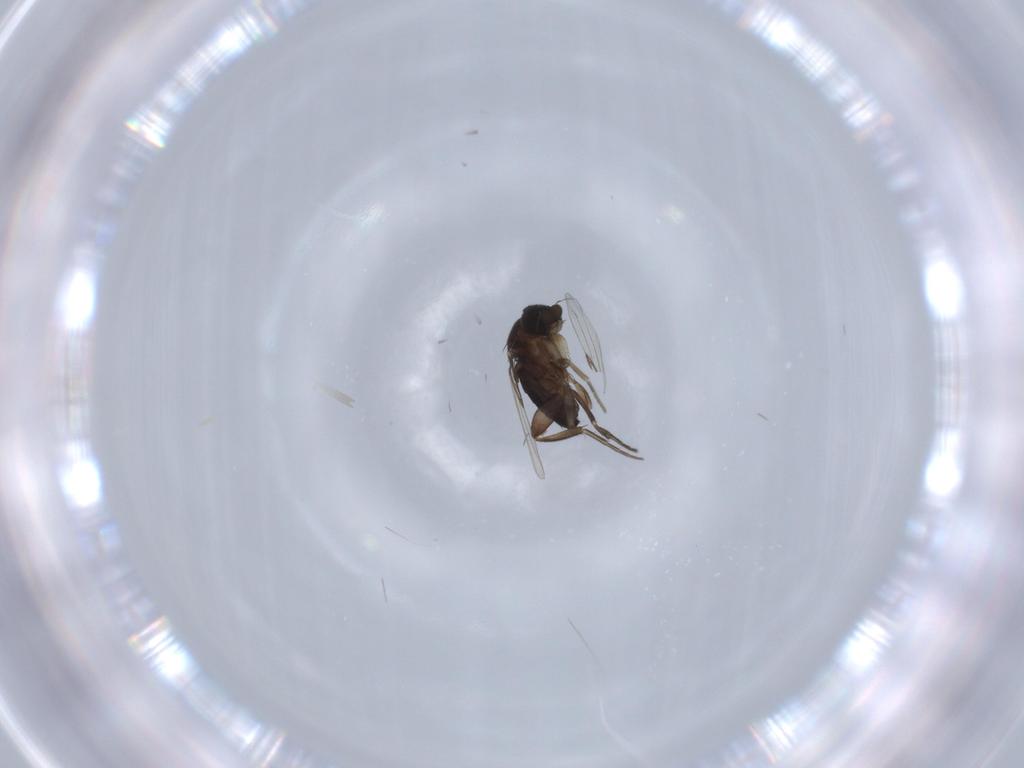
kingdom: Animalia
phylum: Arthropoda
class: Insecta
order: Diptera
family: Phoridae
